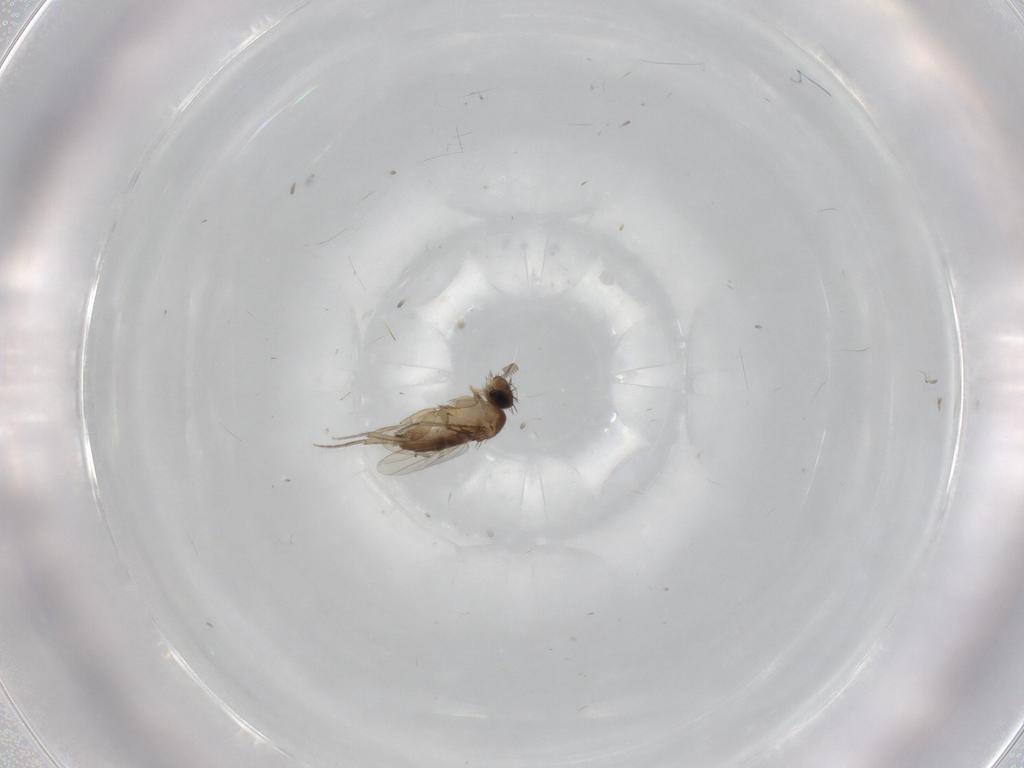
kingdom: Animalia
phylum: Arthropoda
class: Insecta
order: Diptera
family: Phoridae
